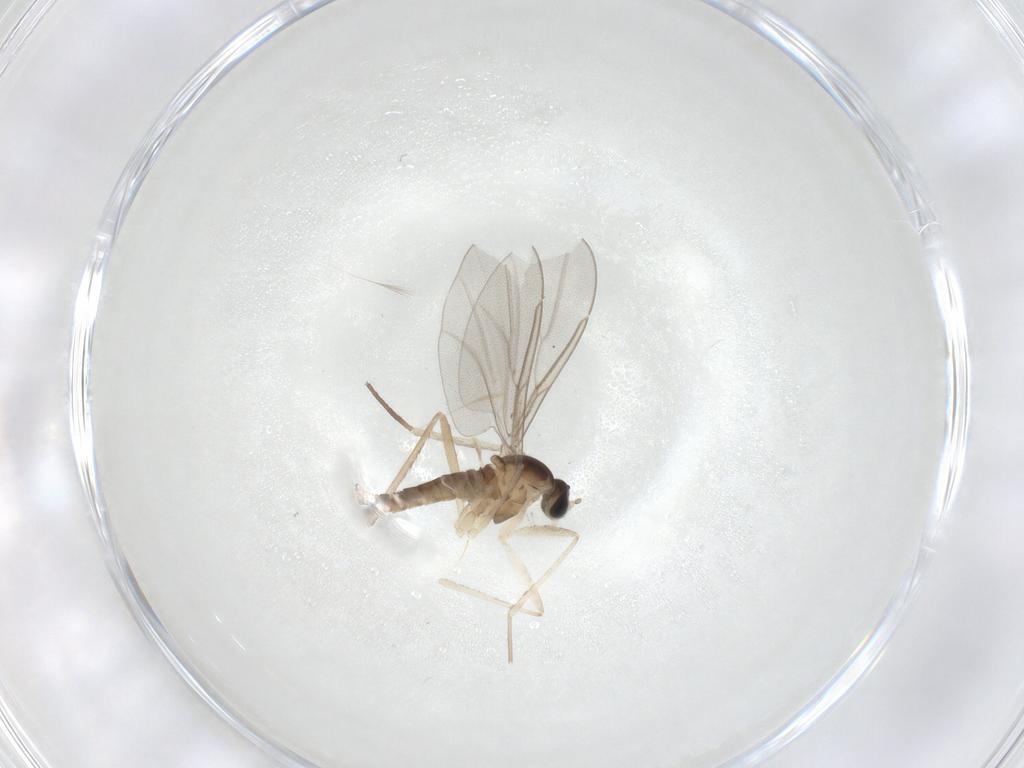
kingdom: Animalia
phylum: Arthropoda
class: Insecta
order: Diptera
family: Cecidomyiidae
